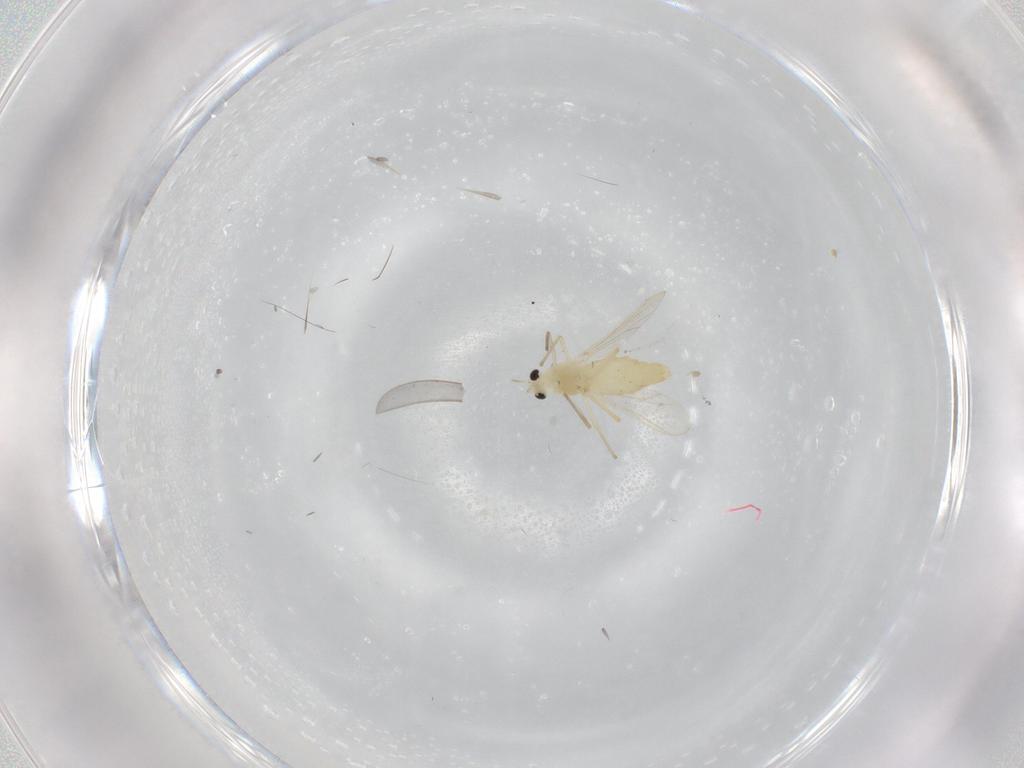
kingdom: Animalia
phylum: Arthropoda
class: Insecta
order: Diptera
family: Chironomidae
